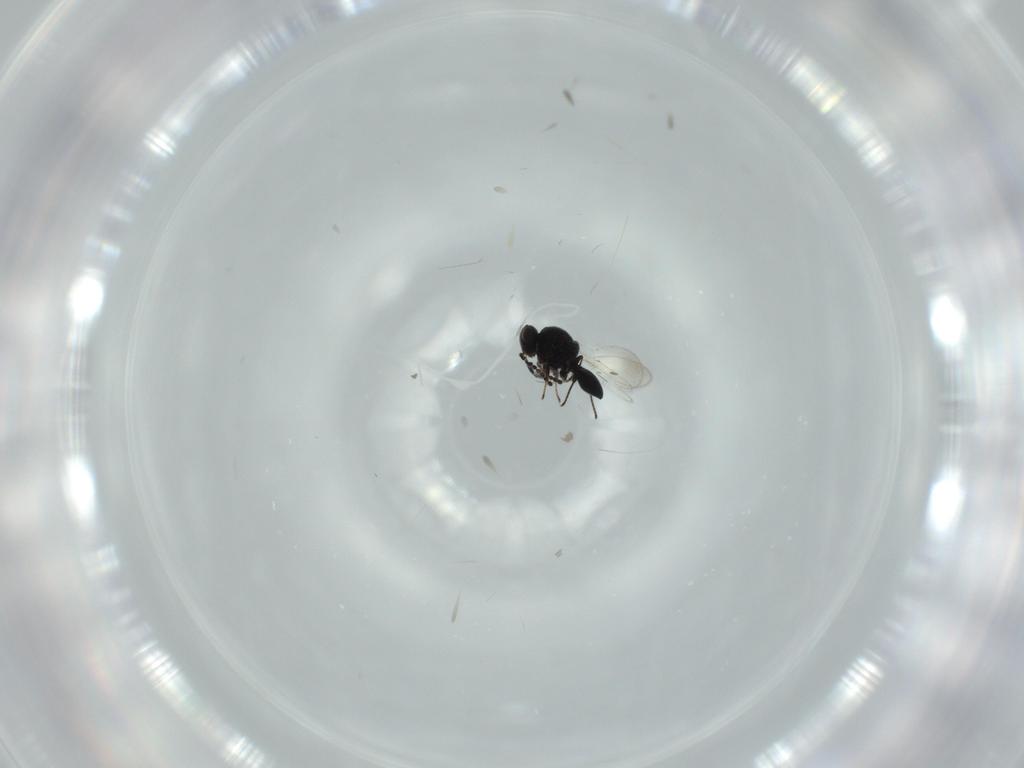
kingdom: Animalia
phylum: Arthropoda
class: Insecta
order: Hymenoptera
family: Platygastridae
